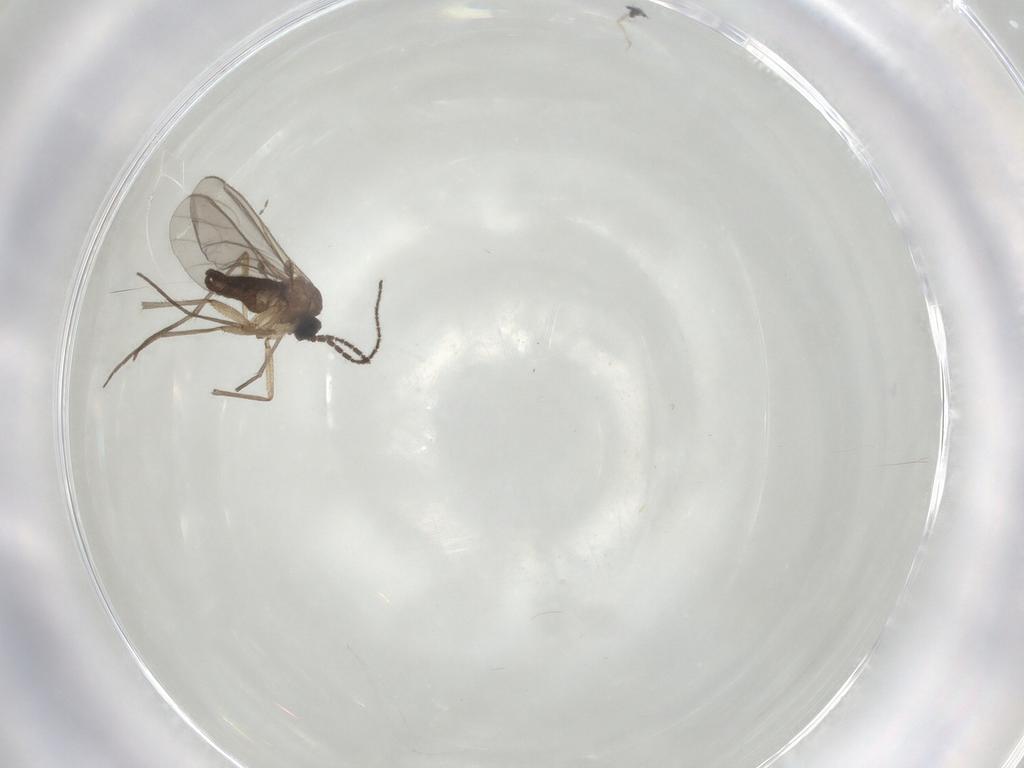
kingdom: Animalia
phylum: Arthropoda
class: Insecta
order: Diptera
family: Sciaridae
